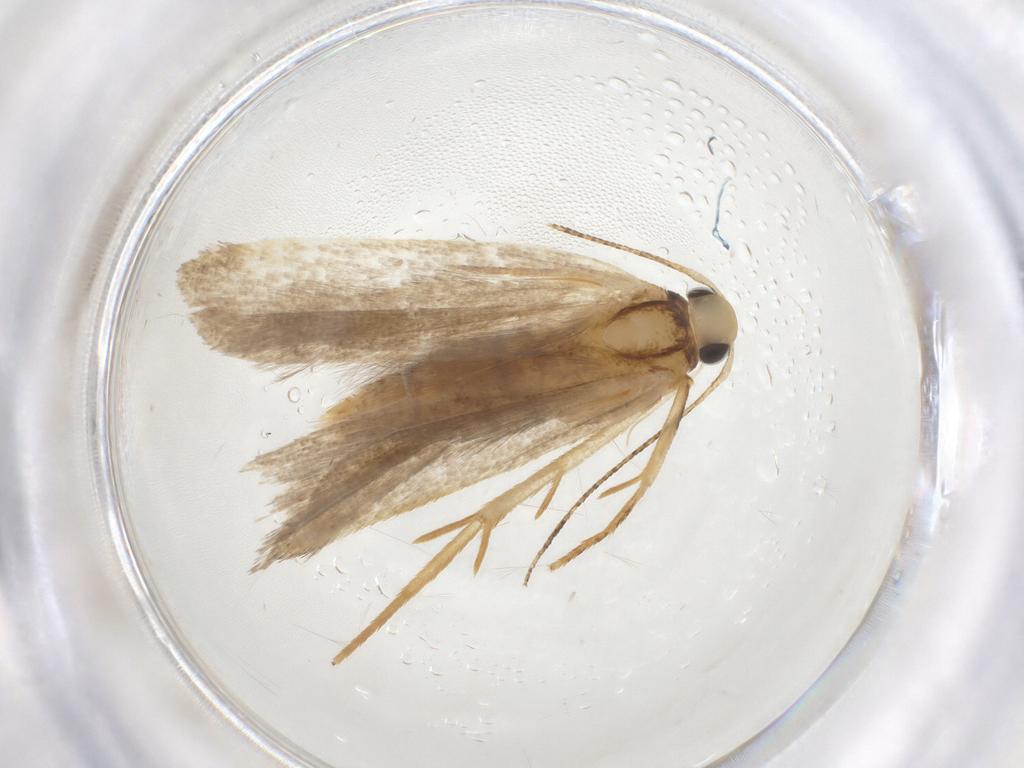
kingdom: Animalia
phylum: Arthropoda
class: Insecta
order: Lepidoptera
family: Gelechiidae
